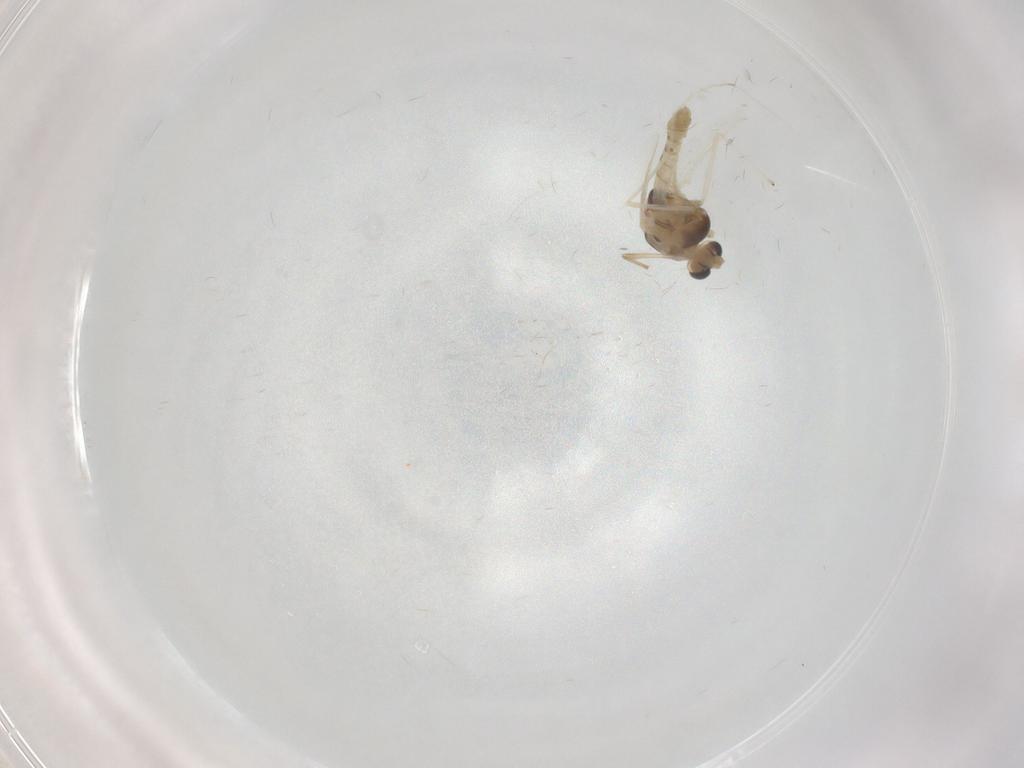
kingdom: Animalia
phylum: Arthropoda
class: Insecta
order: Diptera
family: Chironomidae
